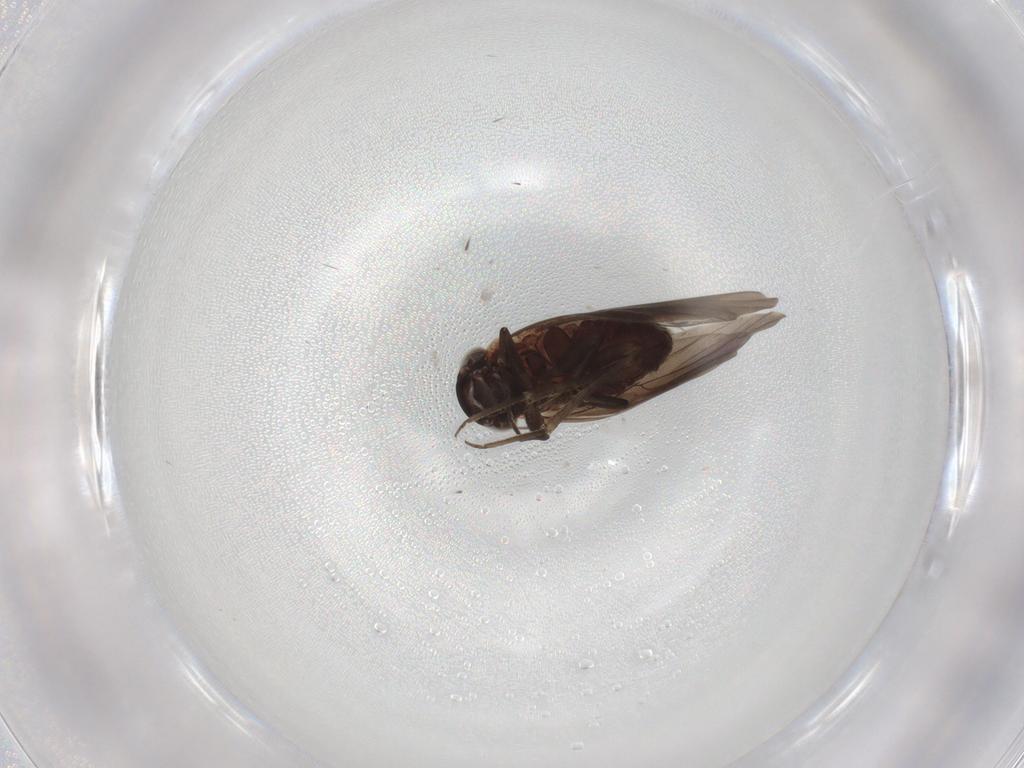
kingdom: Animalia
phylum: Arthropoda
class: Insecta
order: Psocodea
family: Amphientomidae
